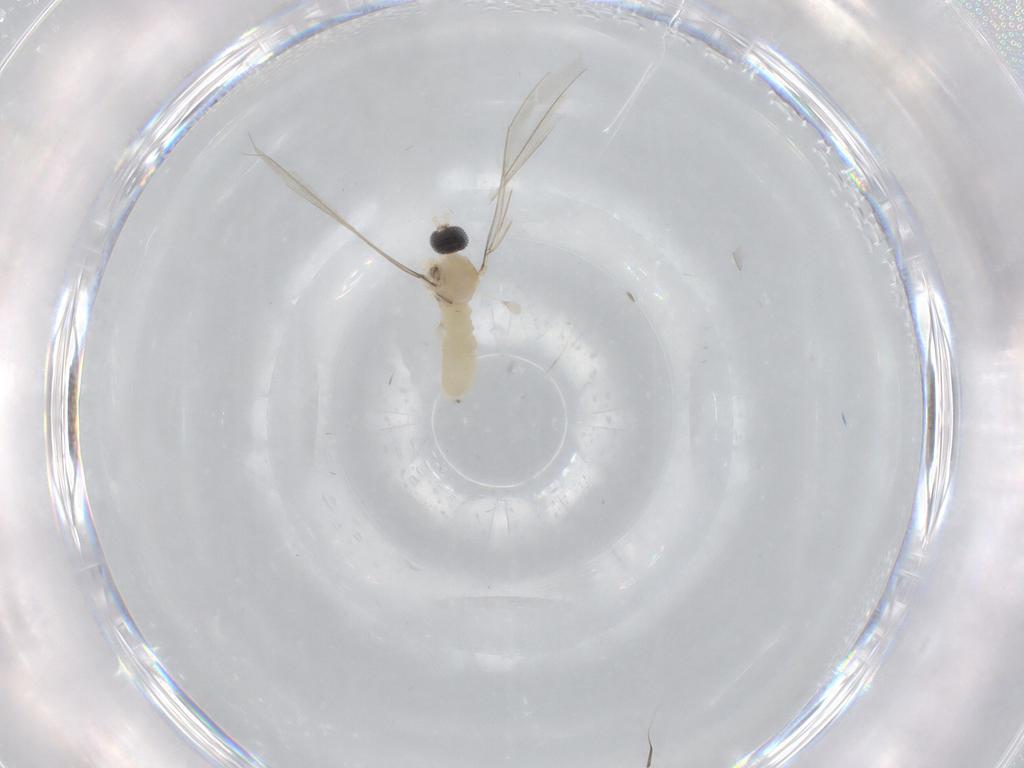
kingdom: Animalia
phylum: Arthropoda
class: Insecta
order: Diptera
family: Cecidomyiidae
